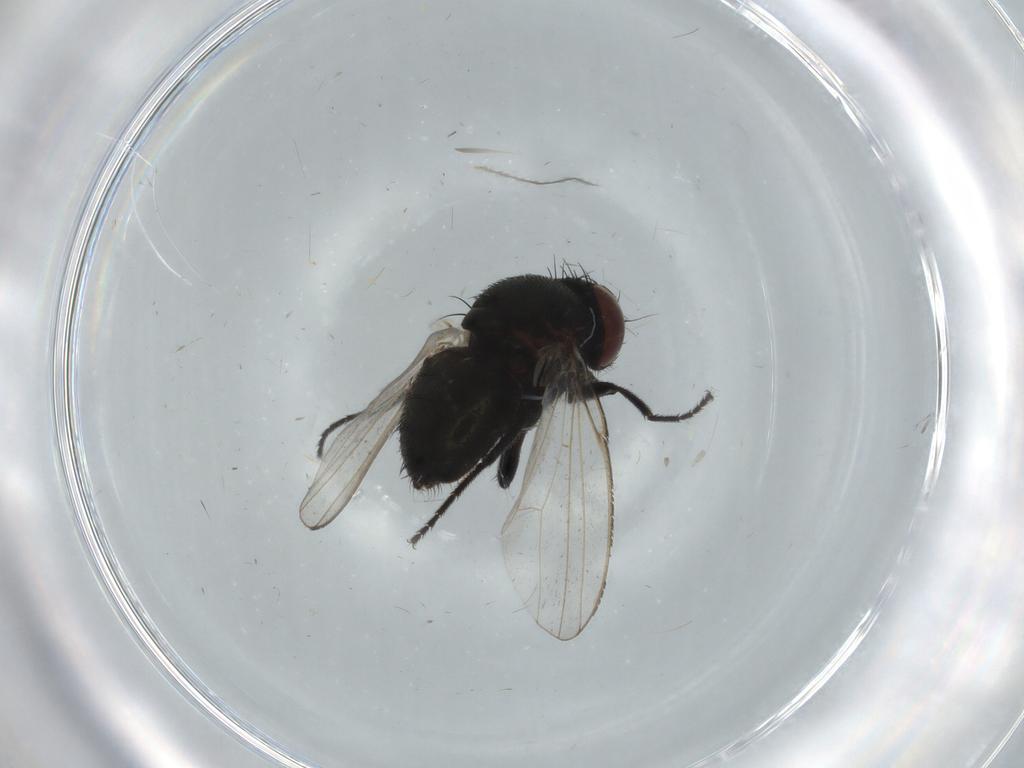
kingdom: Animalia
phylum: Arthropoda
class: Insecta
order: Diptera
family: Milichiidae
